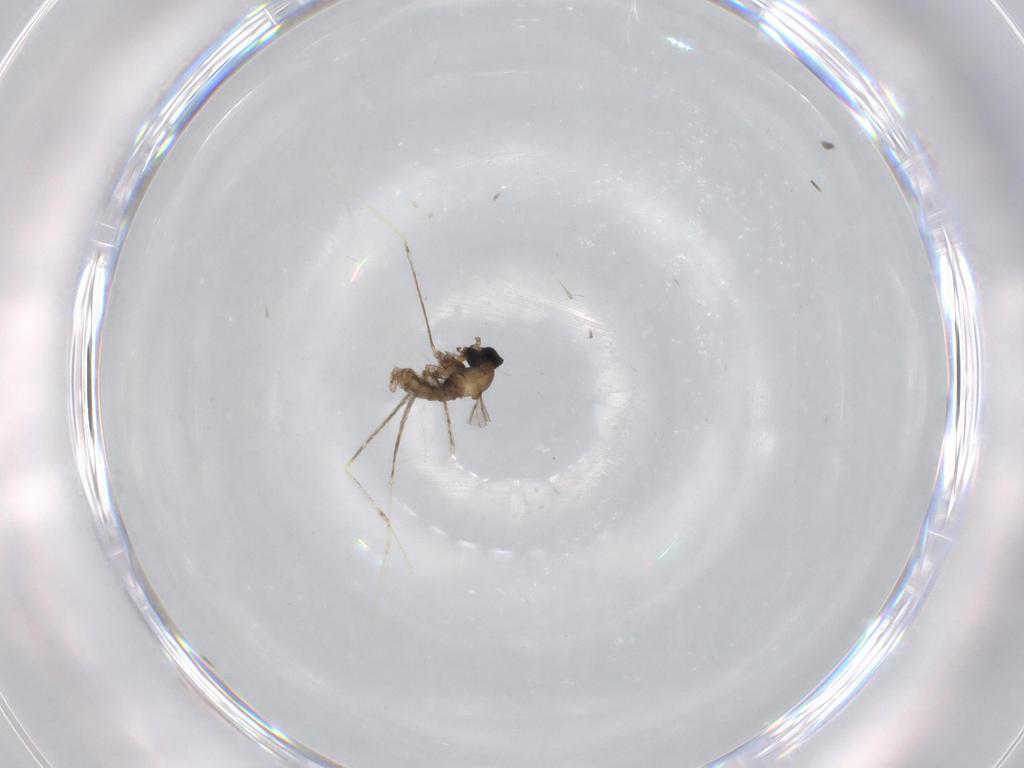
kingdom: Animalia
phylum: Arthropoda
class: Insecta
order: Diptera
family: Cecidomyiidae
